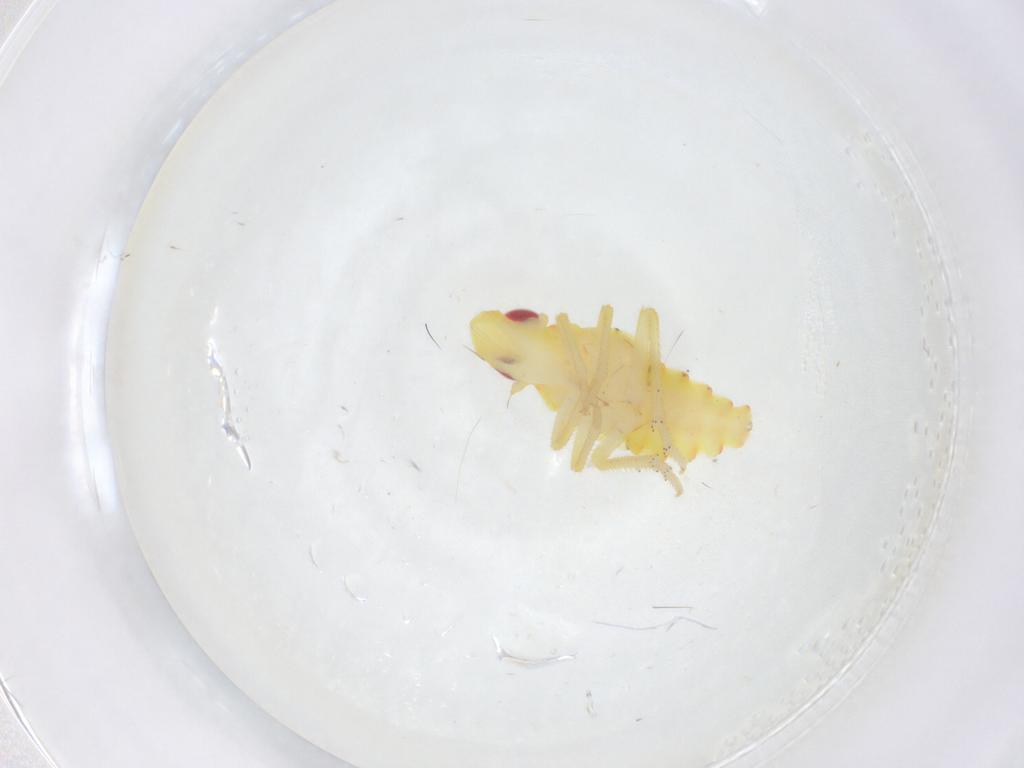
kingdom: Animalia
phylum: Arthropoda
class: Insecta
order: Hemiptera
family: Tropiduchidae
